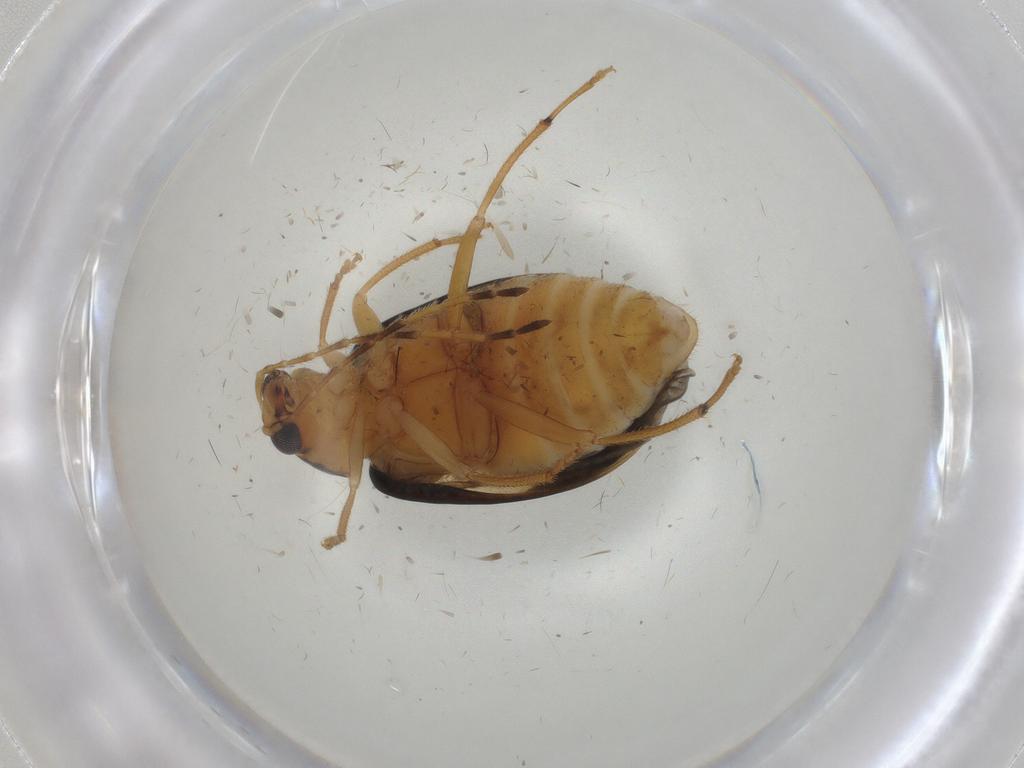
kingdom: Animalia
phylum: Arthropoda
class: Insecta
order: Coleoptera
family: Chrysomelidae
